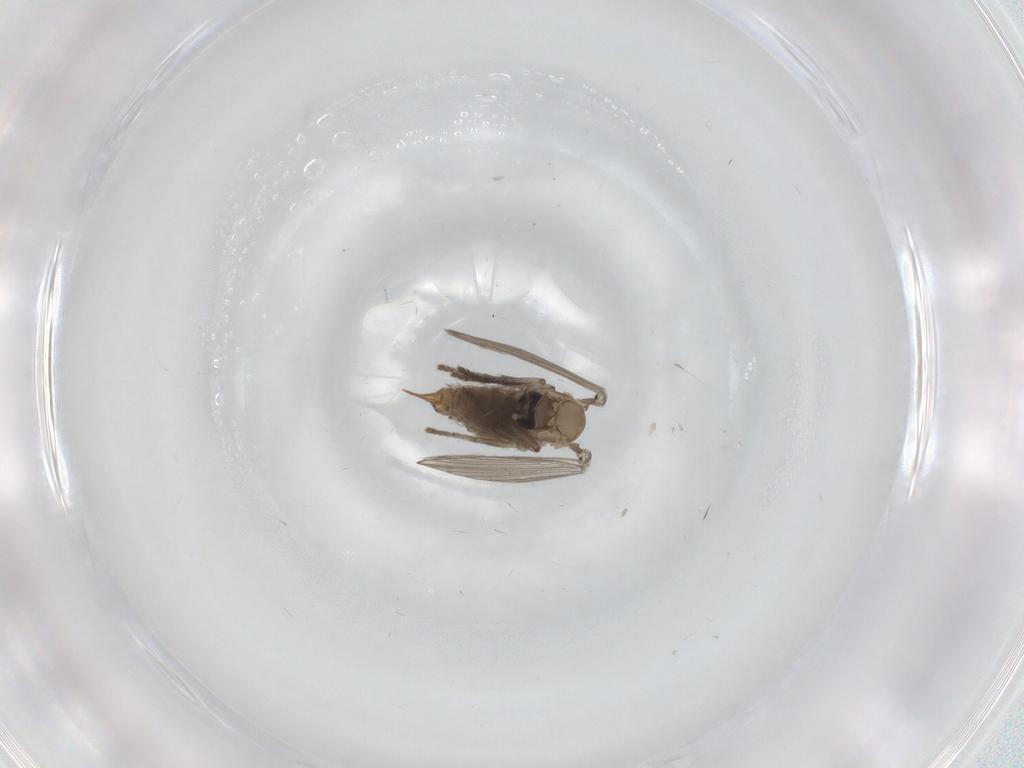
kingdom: Animalia
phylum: Arthropoda
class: Insecta
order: Diptera
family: Psychodidae
